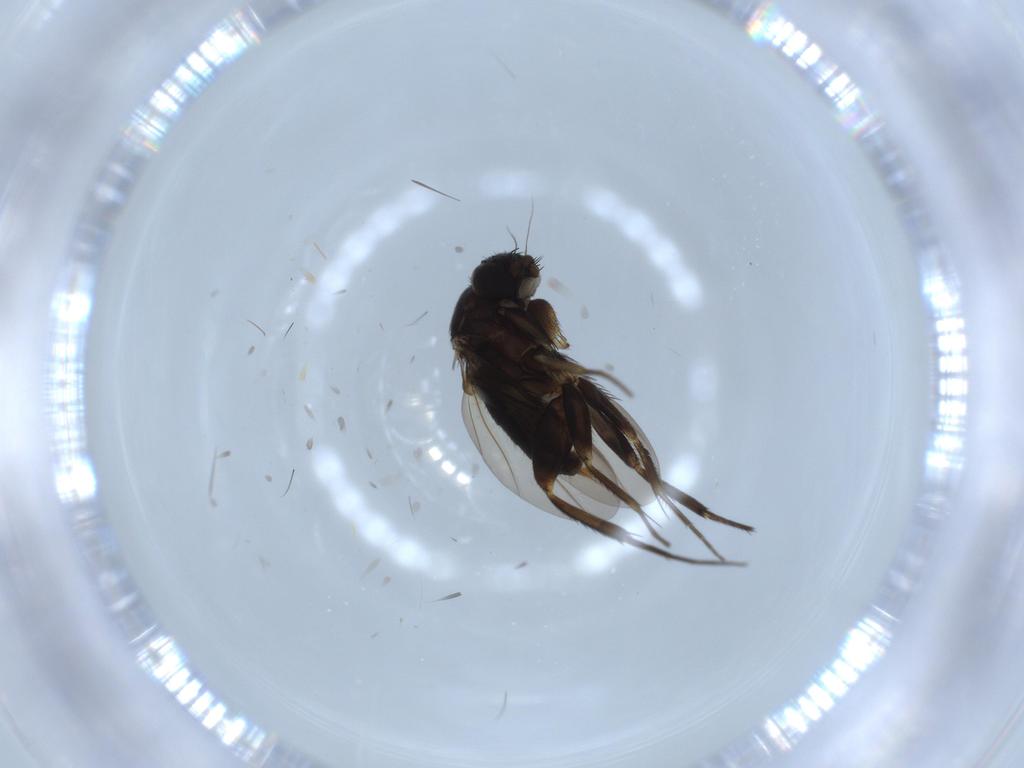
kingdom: Animalia
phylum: Arthropoda
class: Insecta
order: Diptera
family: Phoridae
